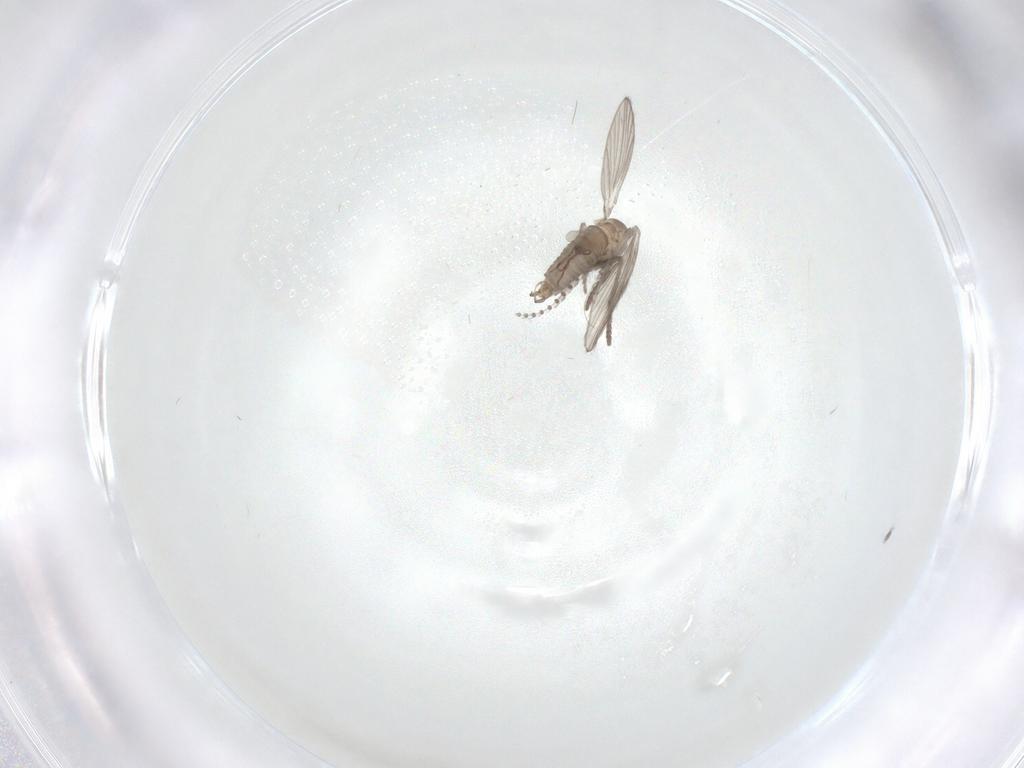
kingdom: Animalia
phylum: Arthropoda
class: Insecta
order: Diptera
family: Psychodidae
